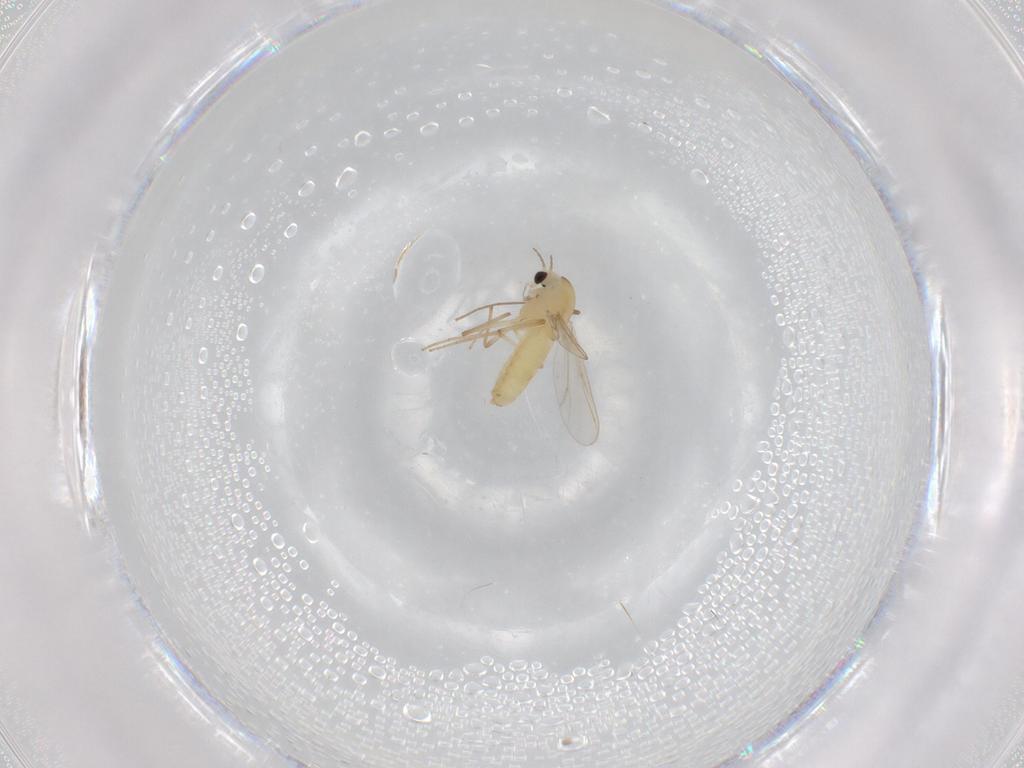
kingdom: Animalia
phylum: Arthropoda
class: Insecta
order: Diptera
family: Chironomidae
